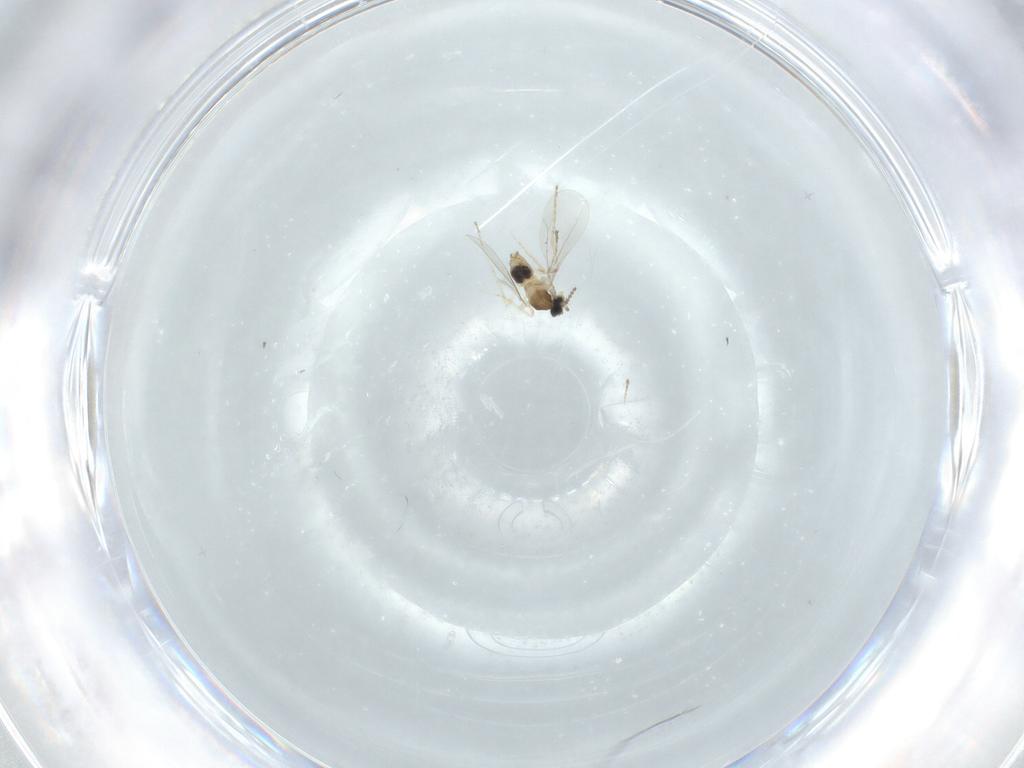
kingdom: Animalia
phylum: Arthropoda
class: Insecta
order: Diptera
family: Cecidomyiidae
